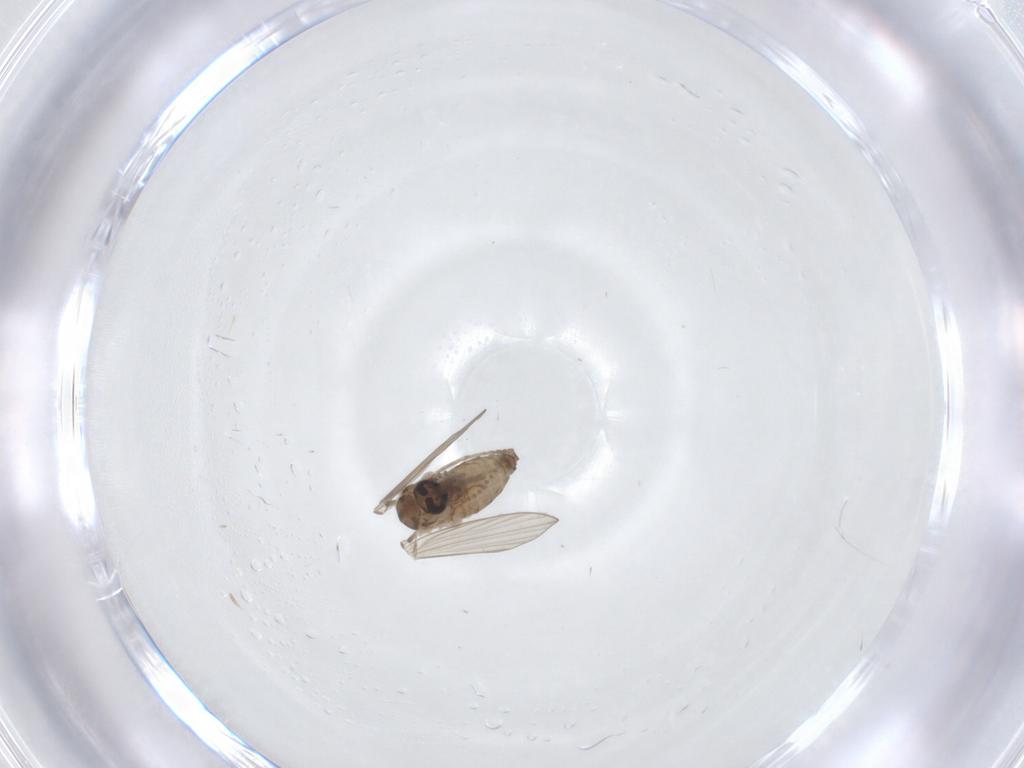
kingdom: Animalia
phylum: Arthropoda
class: Insecta
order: Diptera
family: Psychodidae
